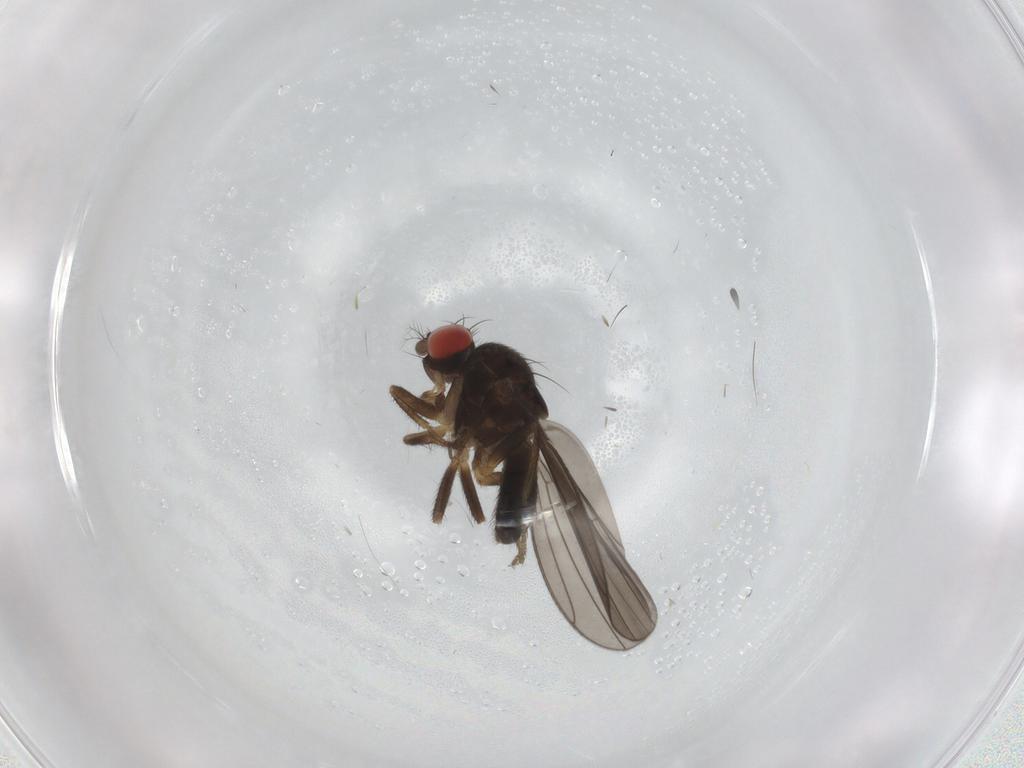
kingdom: Animalia
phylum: Arthropoda
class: Insecta
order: Diptera
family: Drosophilidae
